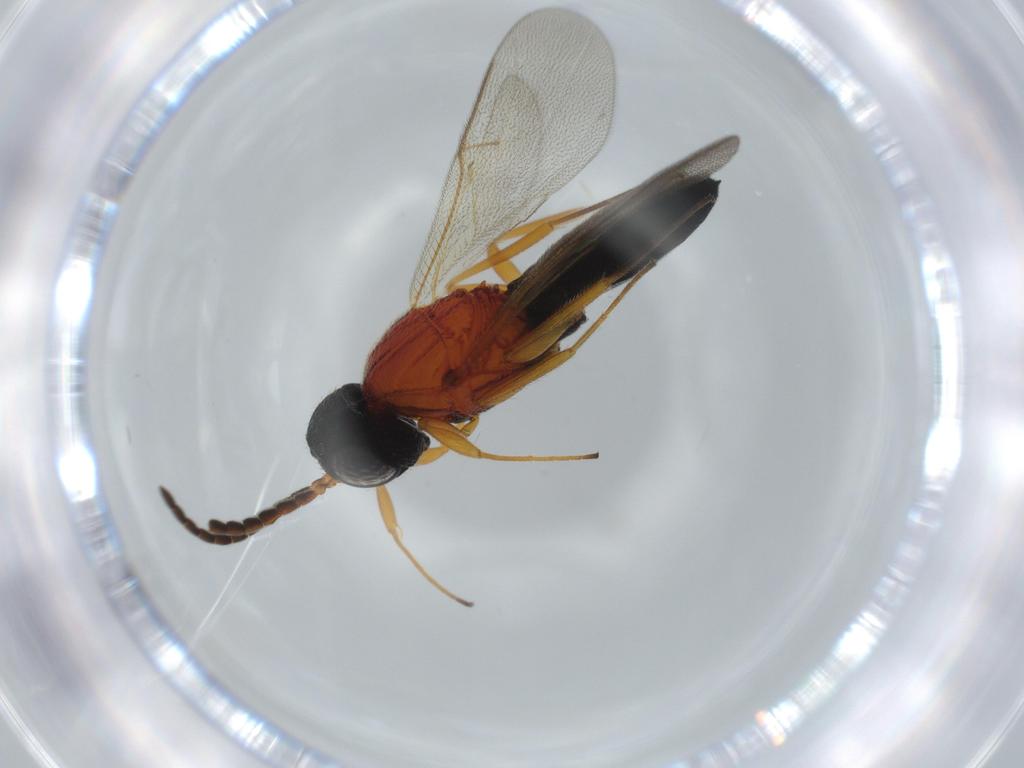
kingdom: Animalia
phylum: Arthropoda
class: Insecta
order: Hymenoptera
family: Scelionidae
